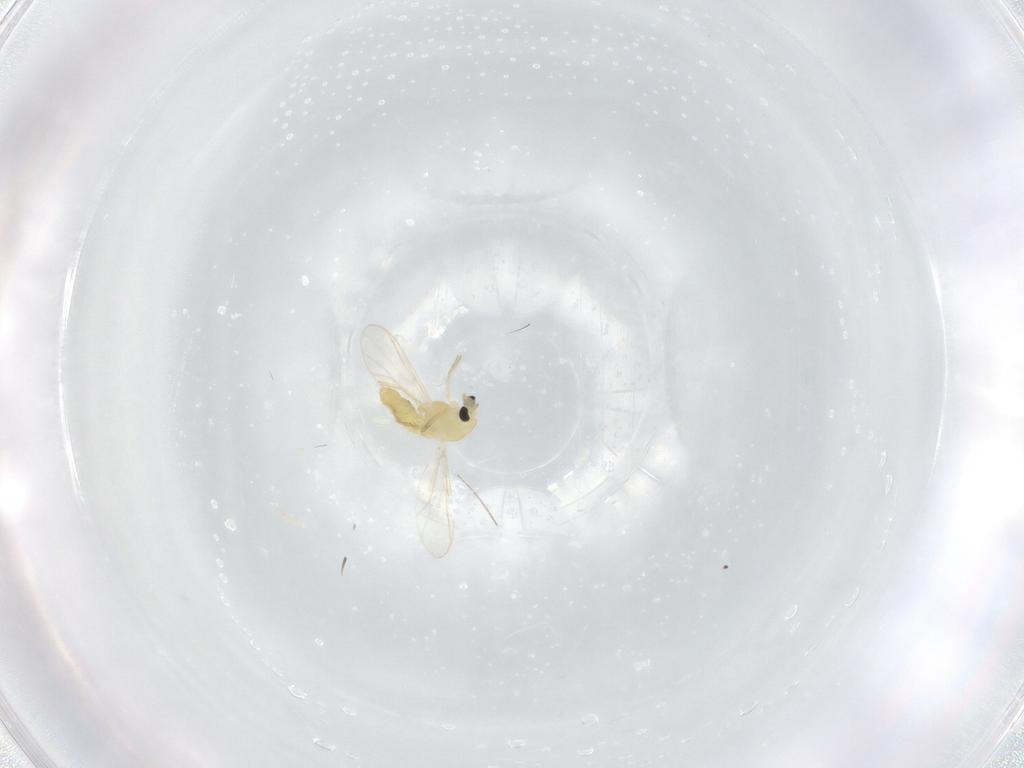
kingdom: Animalia
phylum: Arthropoda
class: Insecta
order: Diptera
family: Chironomidae
